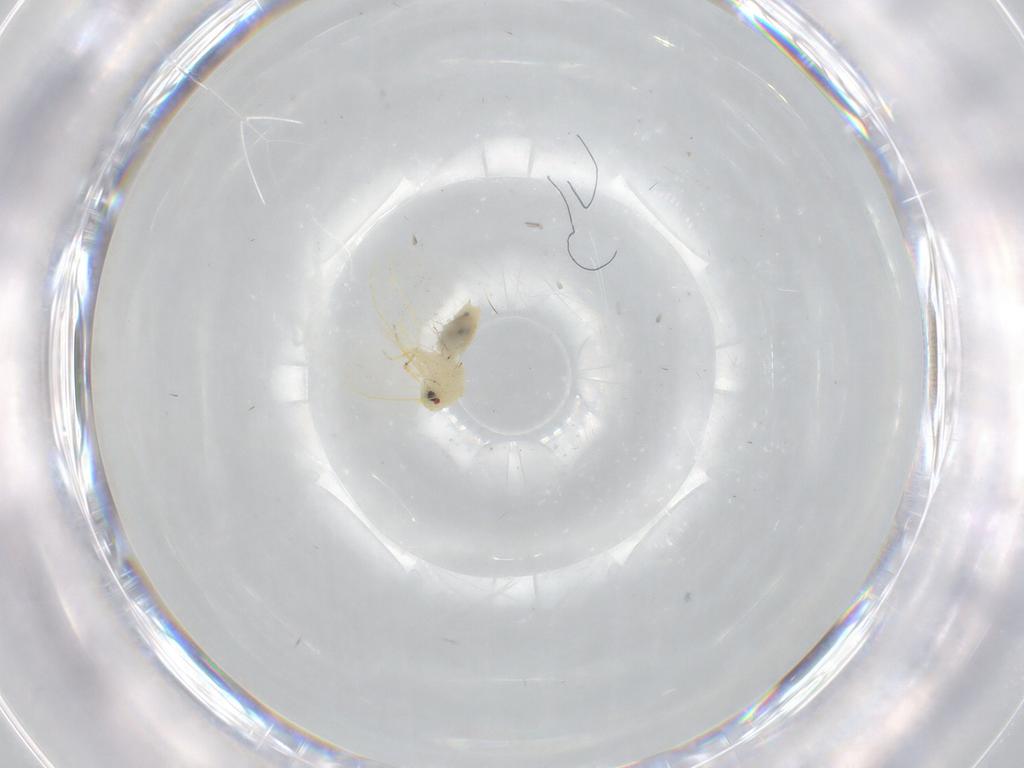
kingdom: Animalia
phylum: Arthropoda
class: Insecta
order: Hemiptera
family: Aleyrodidae
